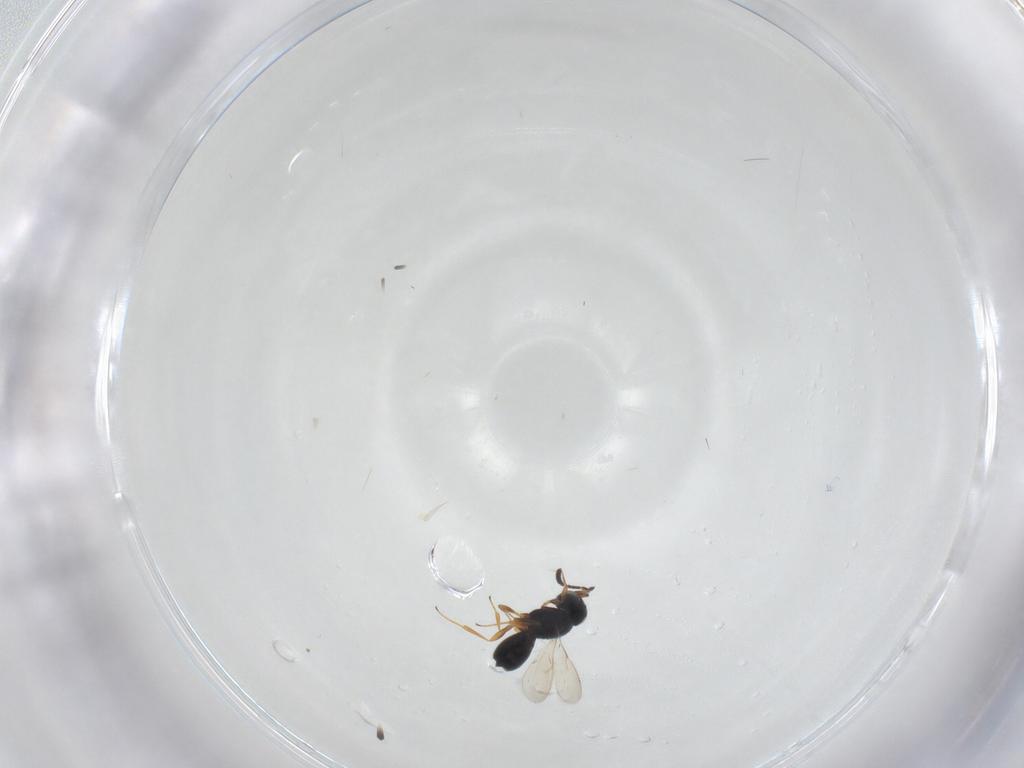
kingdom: Animalia
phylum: Arthropoda
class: Insecta
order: Hymenoptera
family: Scelionidae
